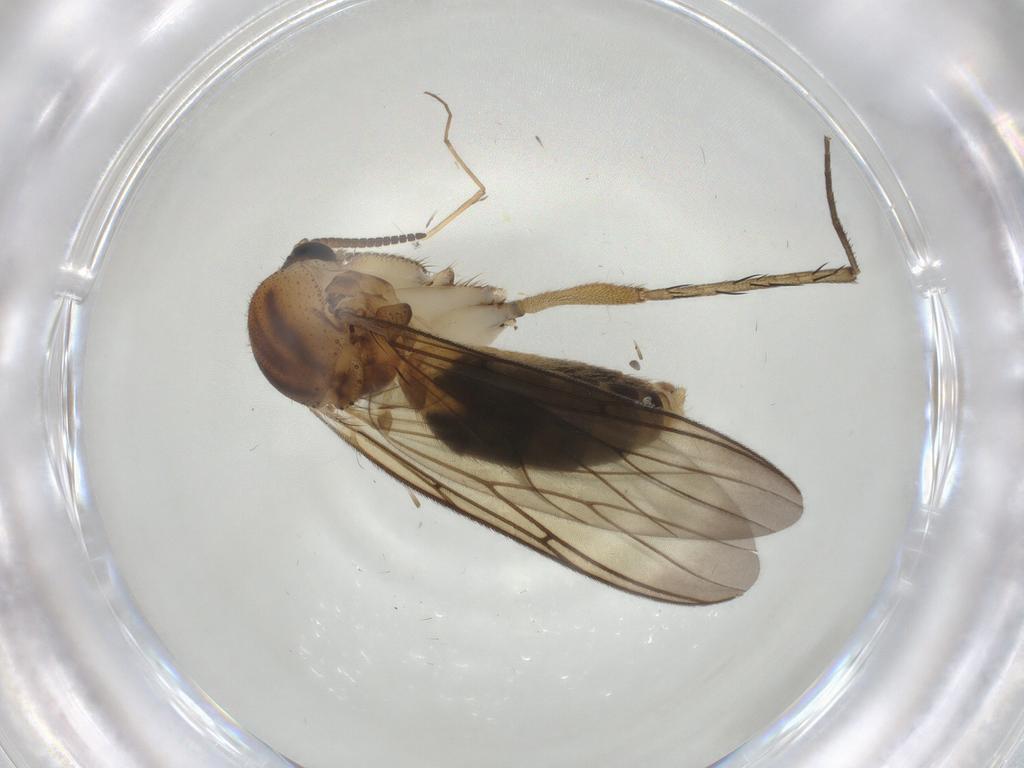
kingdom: Animalia
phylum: Arthropoda
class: Insecta
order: Diptera
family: Mycetophilidae
